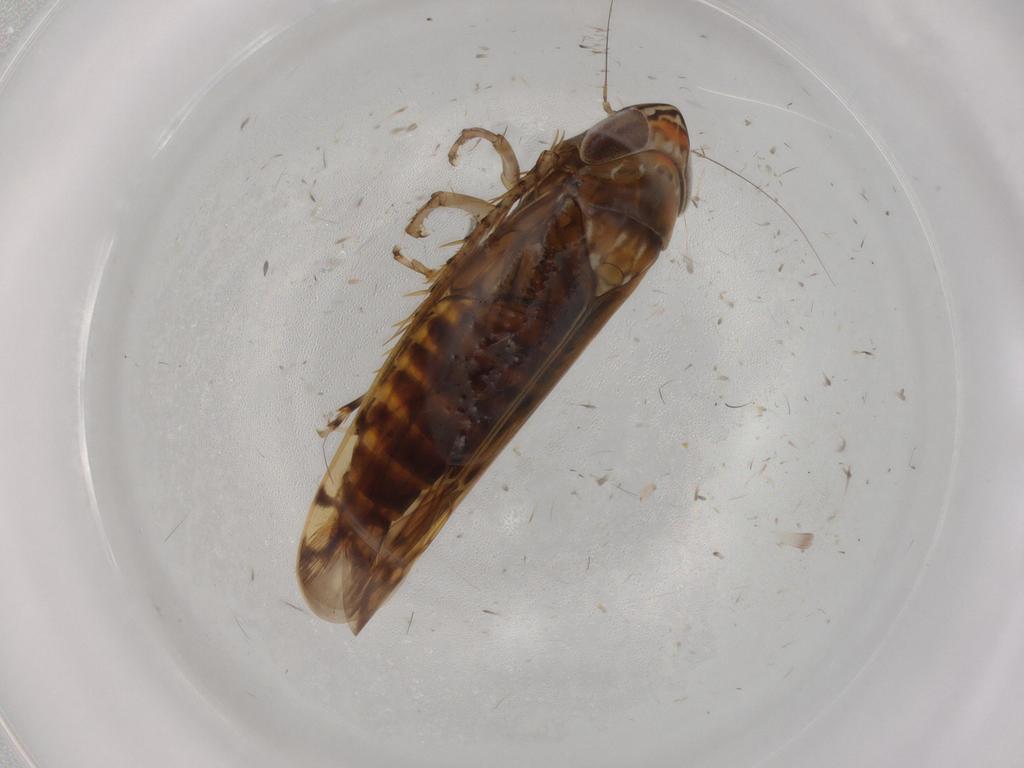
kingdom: Animalia
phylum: Arthropoda
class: Insecta
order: Hemiptera
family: Cicadellidae
